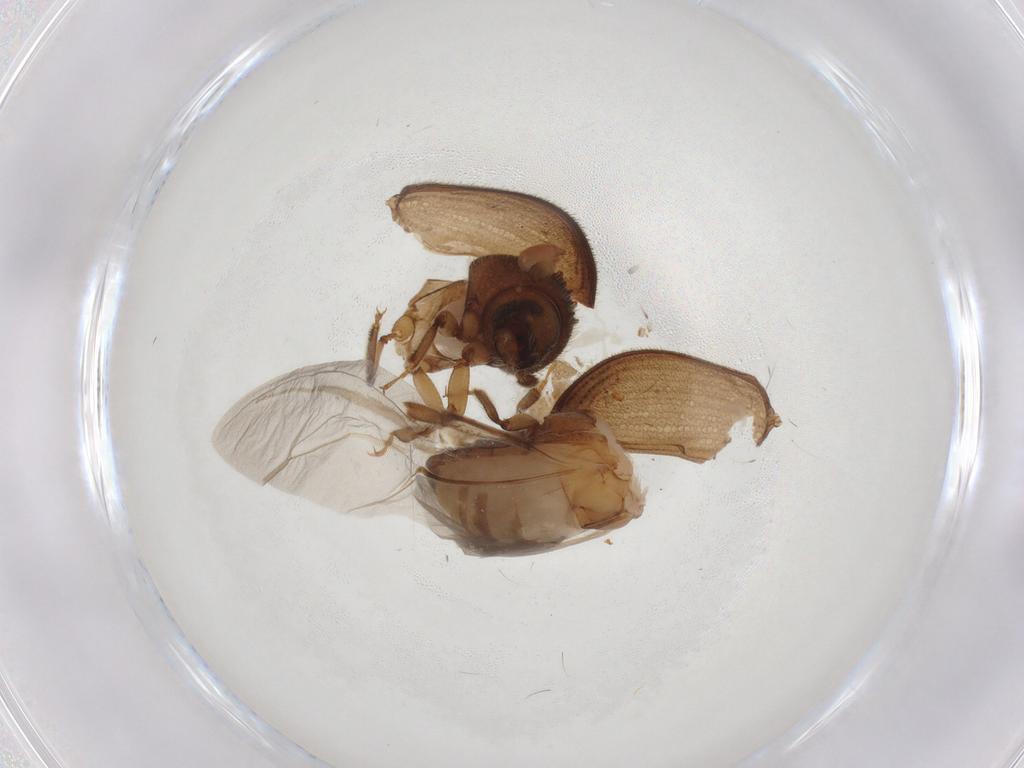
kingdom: Animalia
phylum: Arthropoda
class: Insecta
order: Coleoptera
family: Curculionidae
